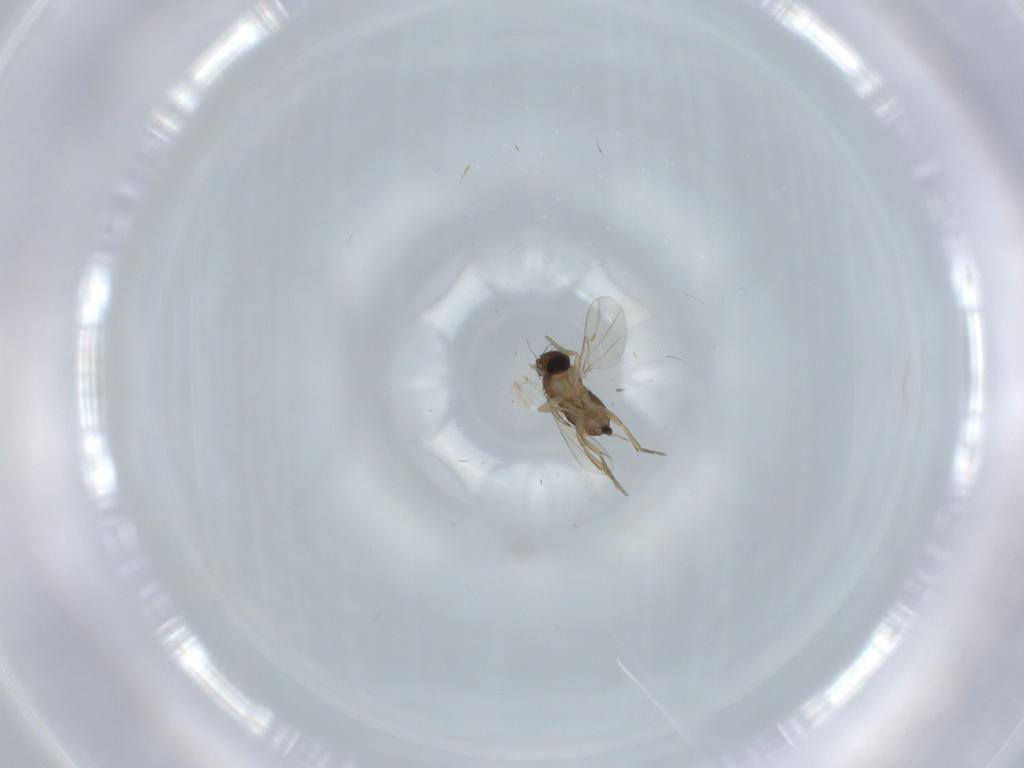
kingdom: Animalia
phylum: Arthropoda
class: Insecta
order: Diptera
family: Phoridae
